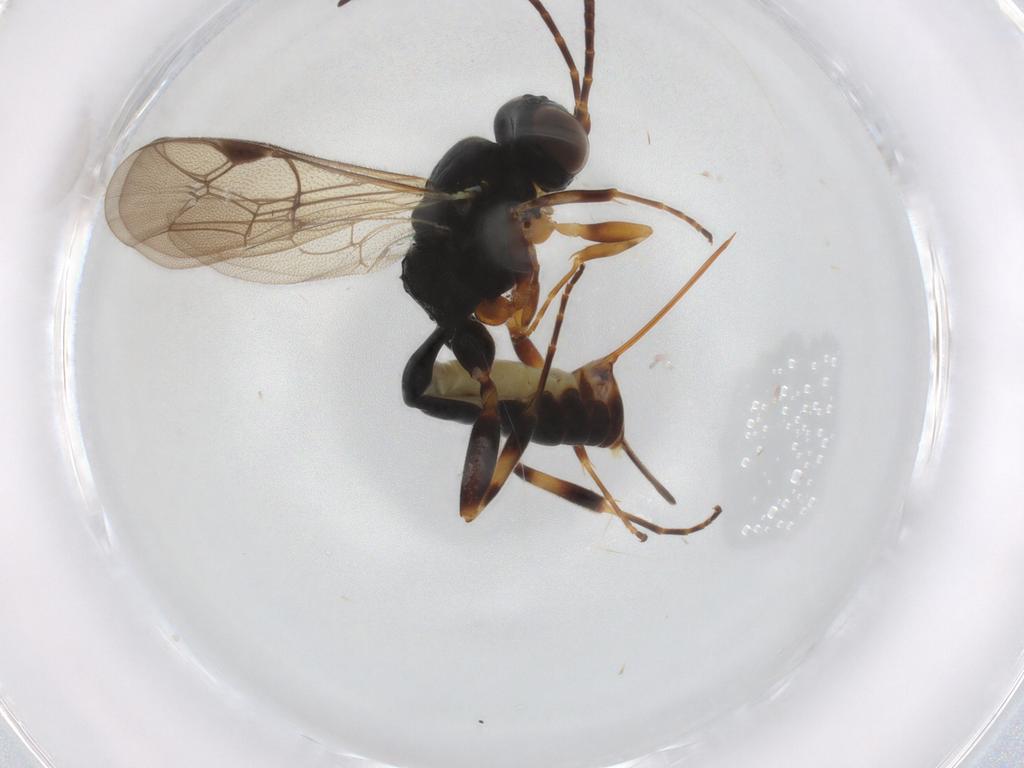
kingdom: Animalia
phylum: Arthropoda
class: Insecta
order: Hymenoptera
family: Ichneumonidae
